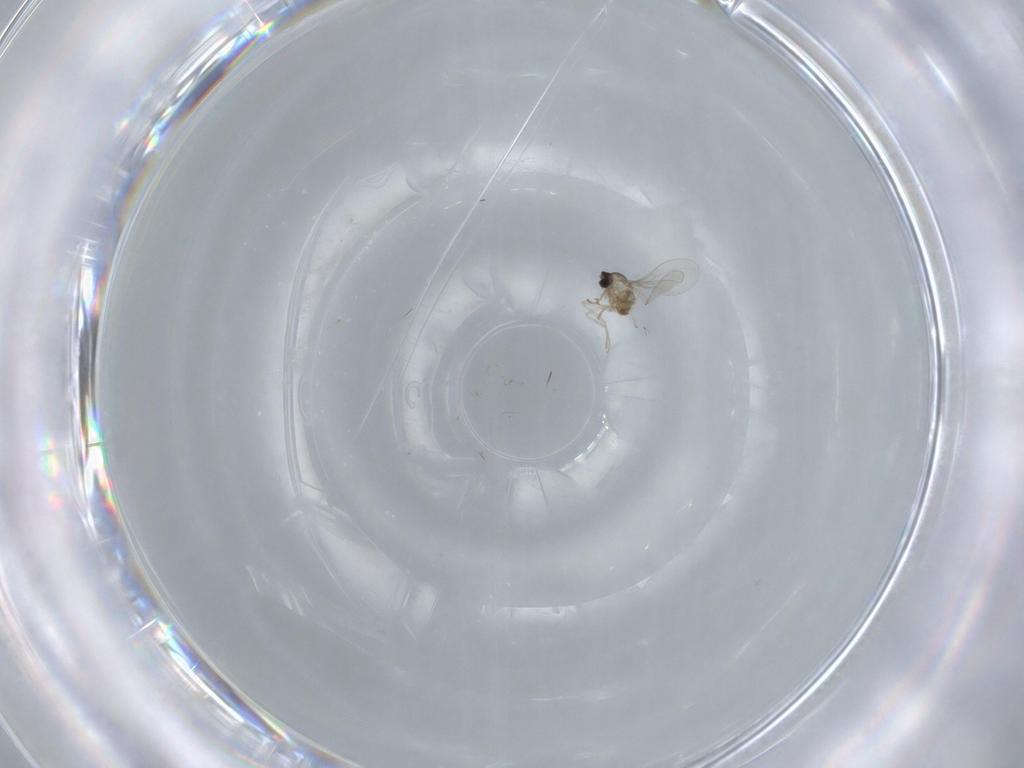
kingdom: Animalia
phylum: Arthropoda
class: Insecta
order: Diptera
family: Cecidomyiidae
